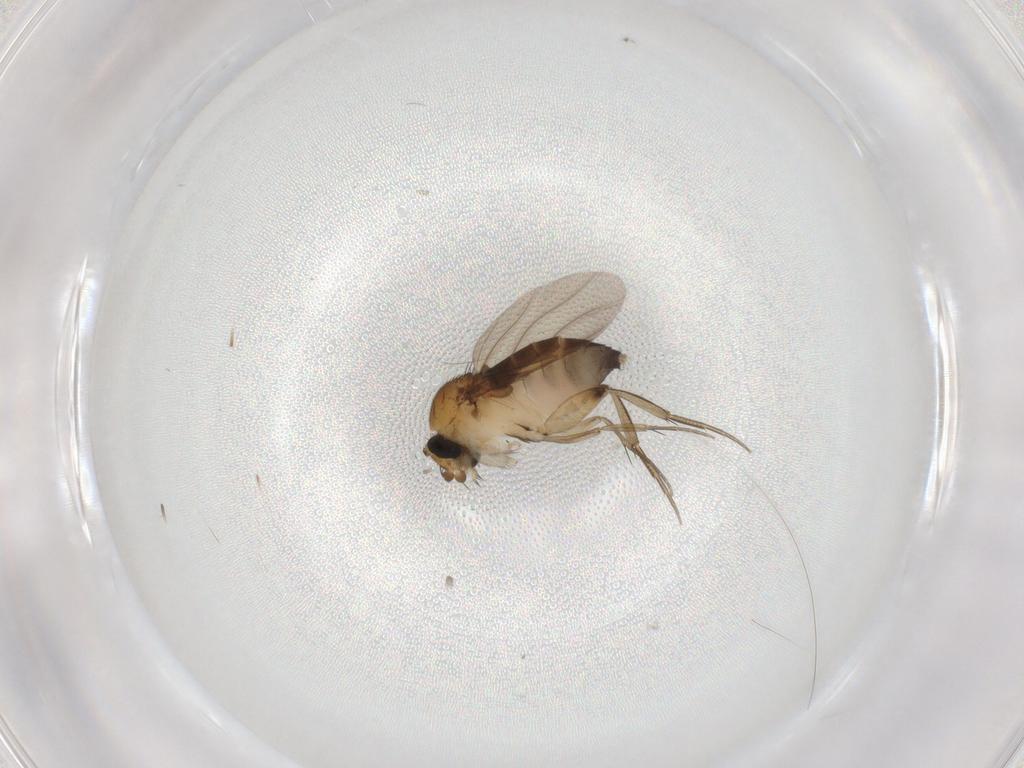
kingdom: Animalia
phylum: Arthropoda
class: Insecta
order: Diptera
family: Phoridae
